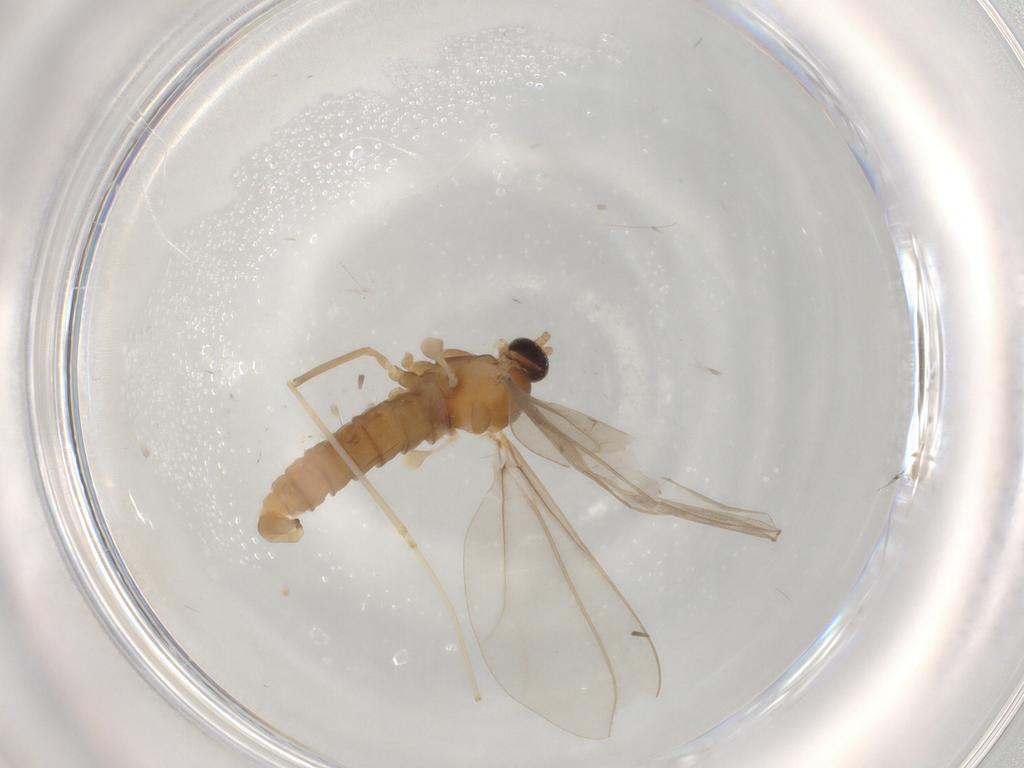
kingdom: Animalia
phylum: Arthropoda
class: Insecta
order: Diptera
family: Cecidomyiidae
